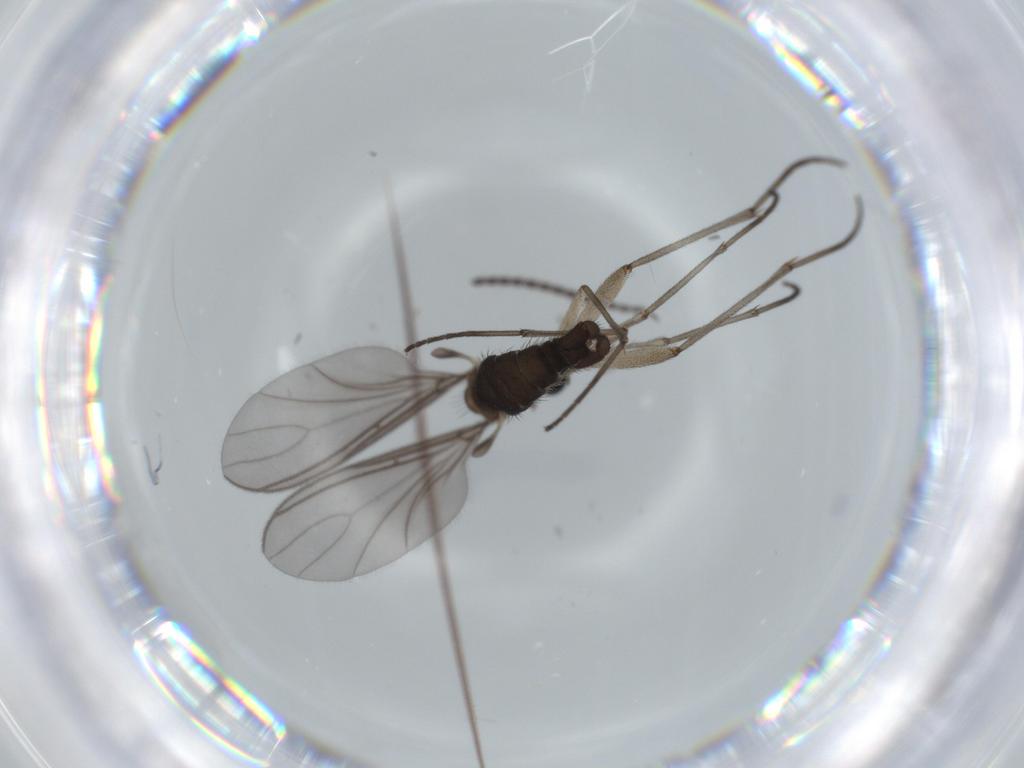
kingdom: Animalia
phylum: Arthropoda
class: Insecta
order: Diptera
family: Sciaridae
